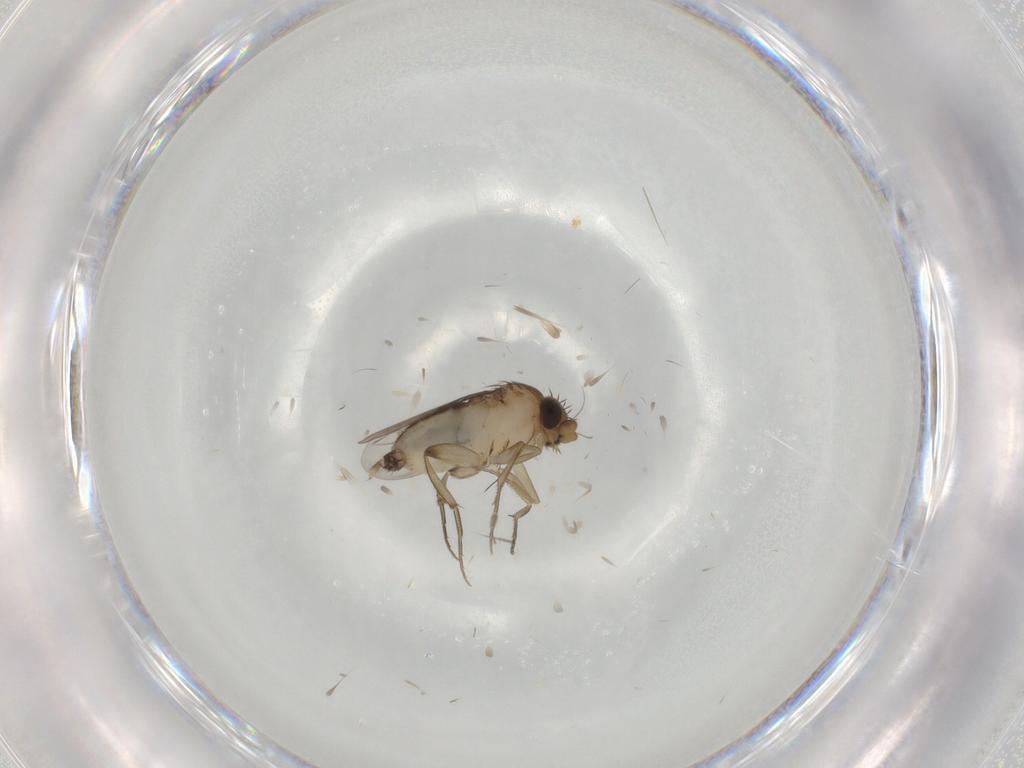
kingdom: Animalia
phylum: Arthropoda
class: Insecta
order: Diptera
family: Phoridae
